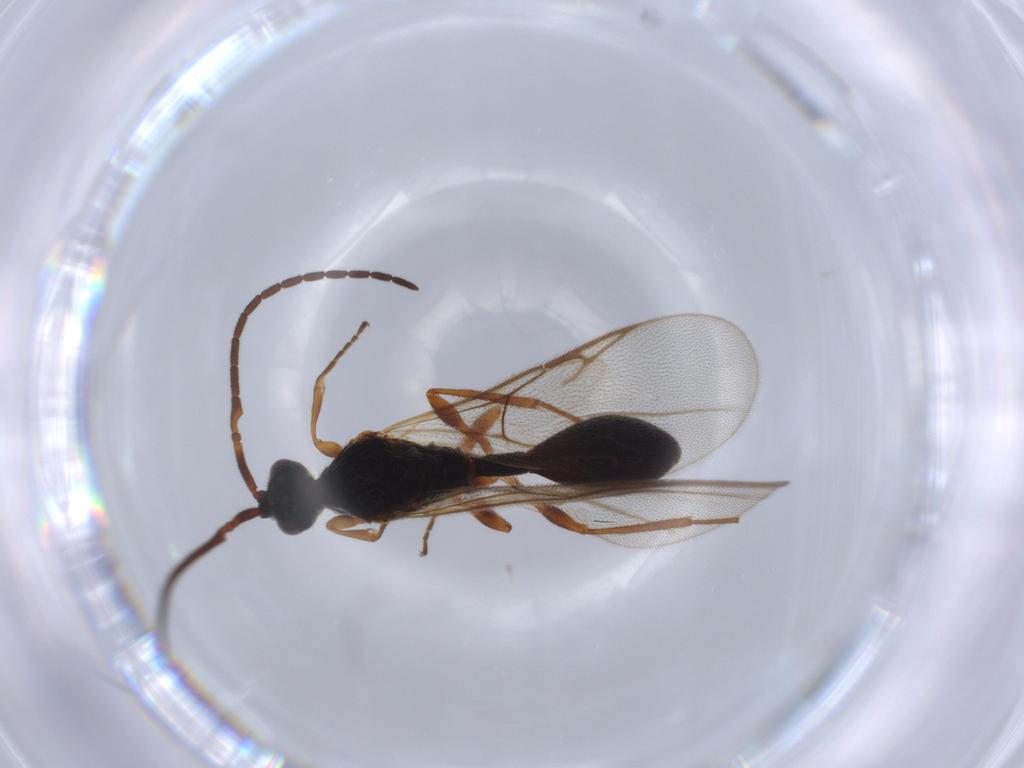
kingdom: Animalia
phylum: Arthropoda
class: Insecta
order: Hymenoptera
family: Diapriidae
